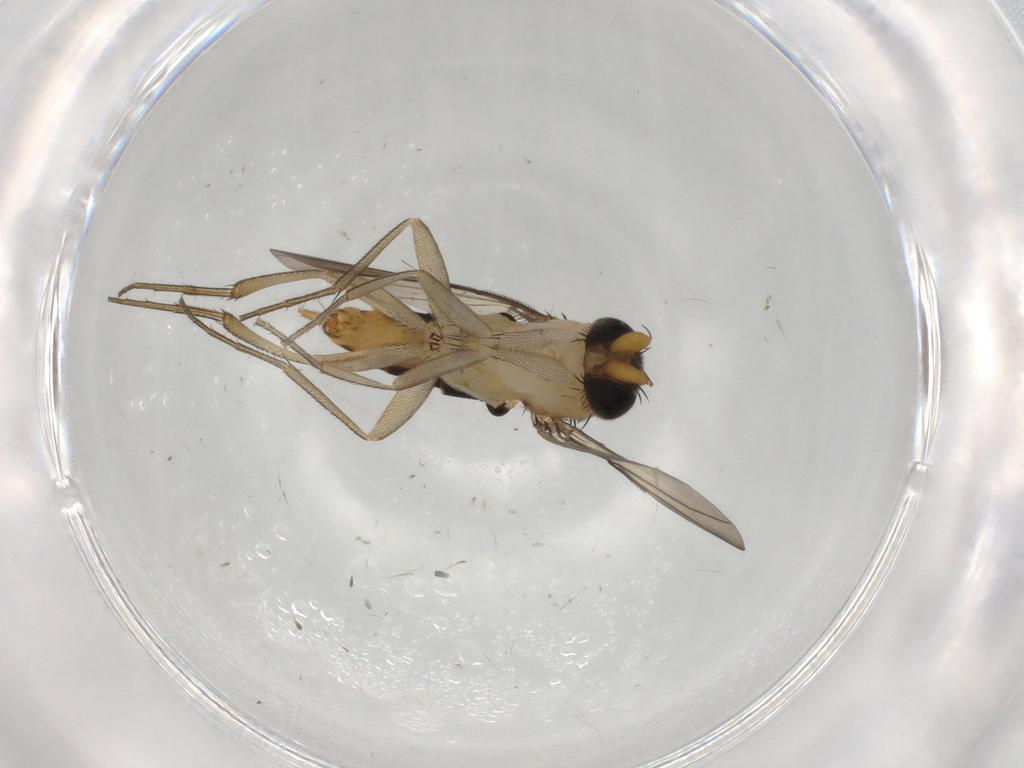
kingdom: Animalia
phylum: Arthropoda
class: Insecta
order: Diptera
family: Phoridae
